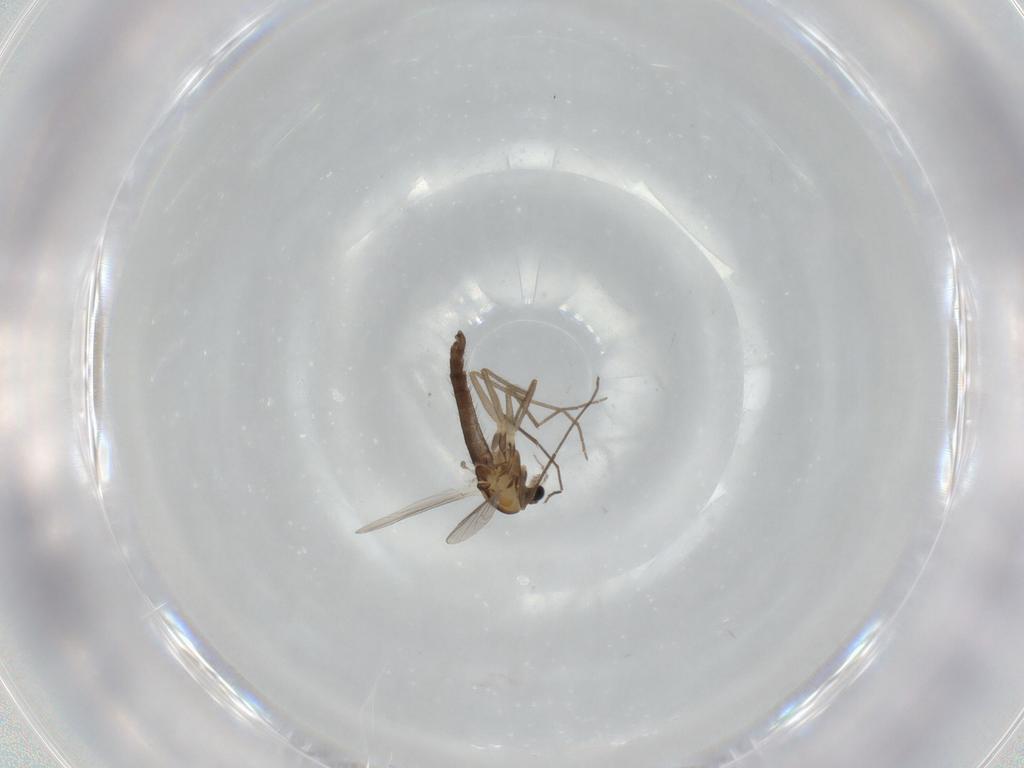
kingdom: Animalia
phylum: Arthropoda
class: Insecta
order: Diptera
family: Chironomidae
